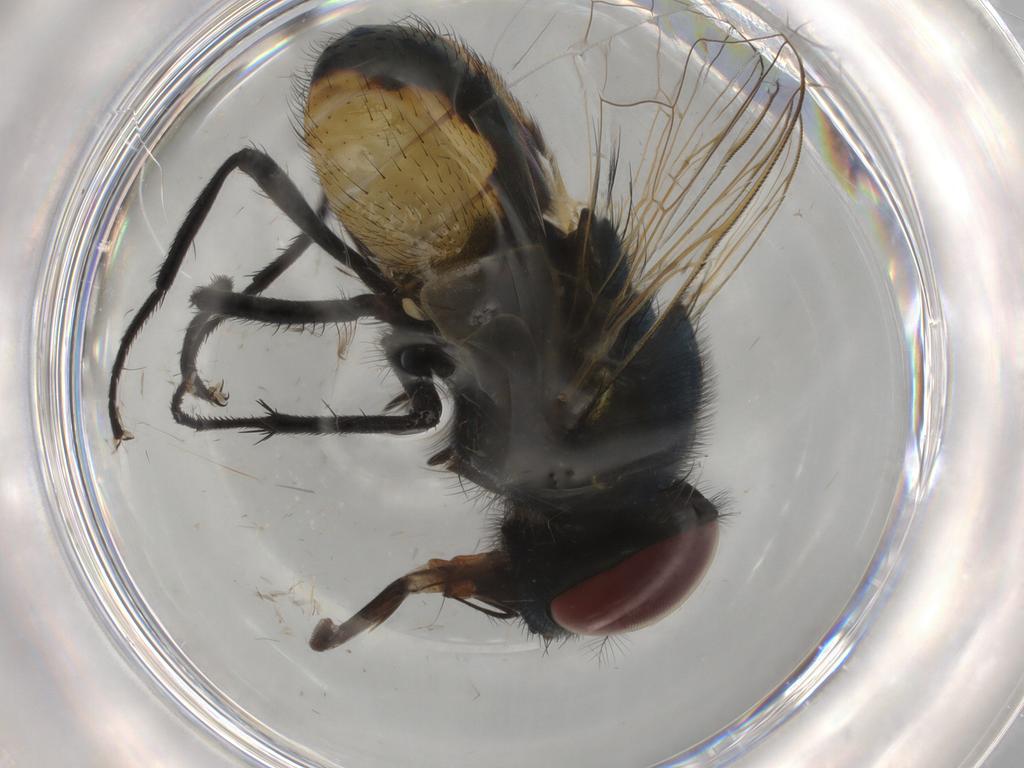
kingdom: Animalia
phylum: Arthropoda
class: Insecta
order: Diptera
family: Muscidae
